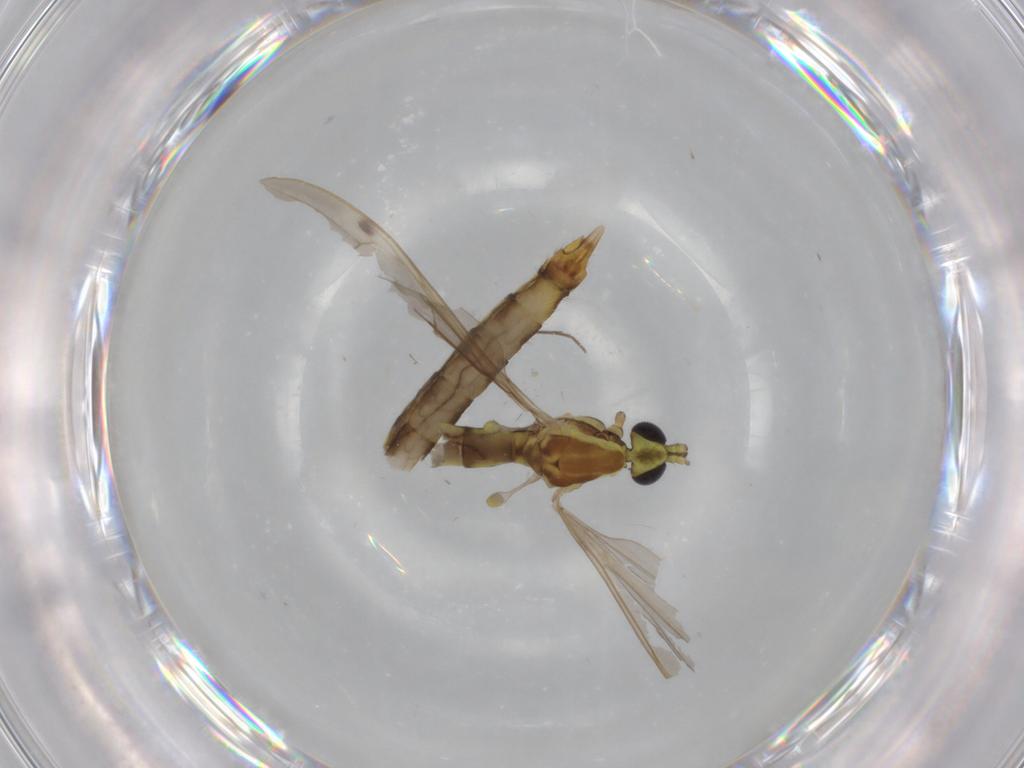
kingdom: Animalia
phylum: Arthropoda
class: Insecta
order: Diptera
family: Limoniidae
